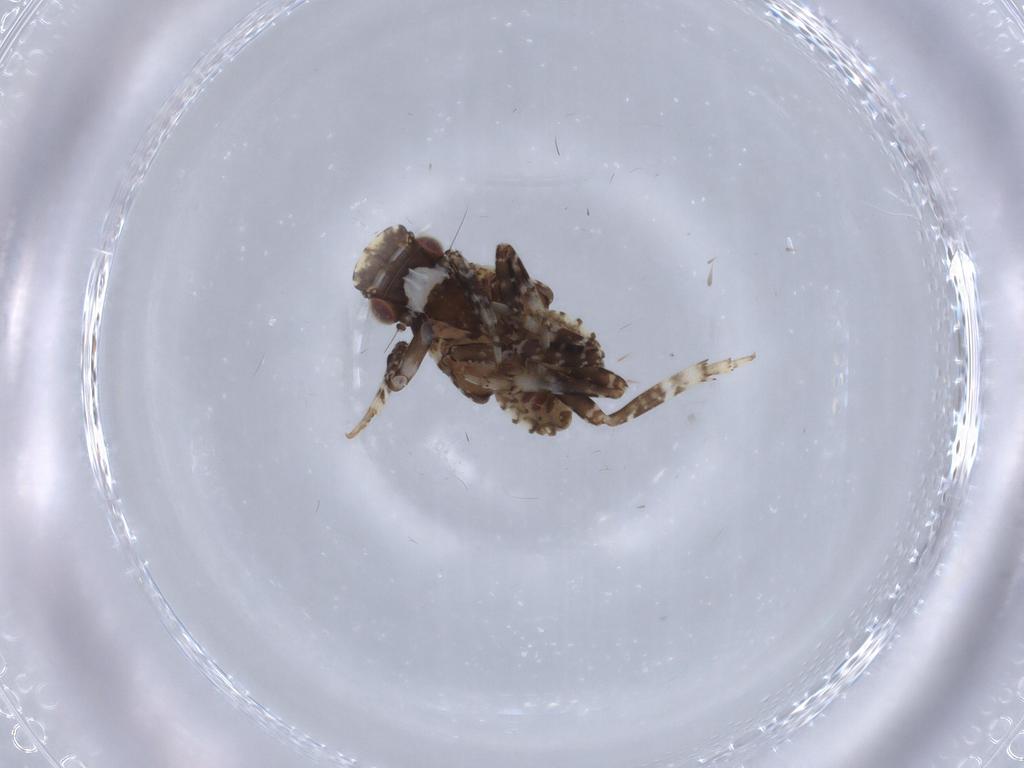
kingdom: Animalia
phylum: Arthropoda
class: Insecta
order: Hemiptera
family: Fulgoridae
